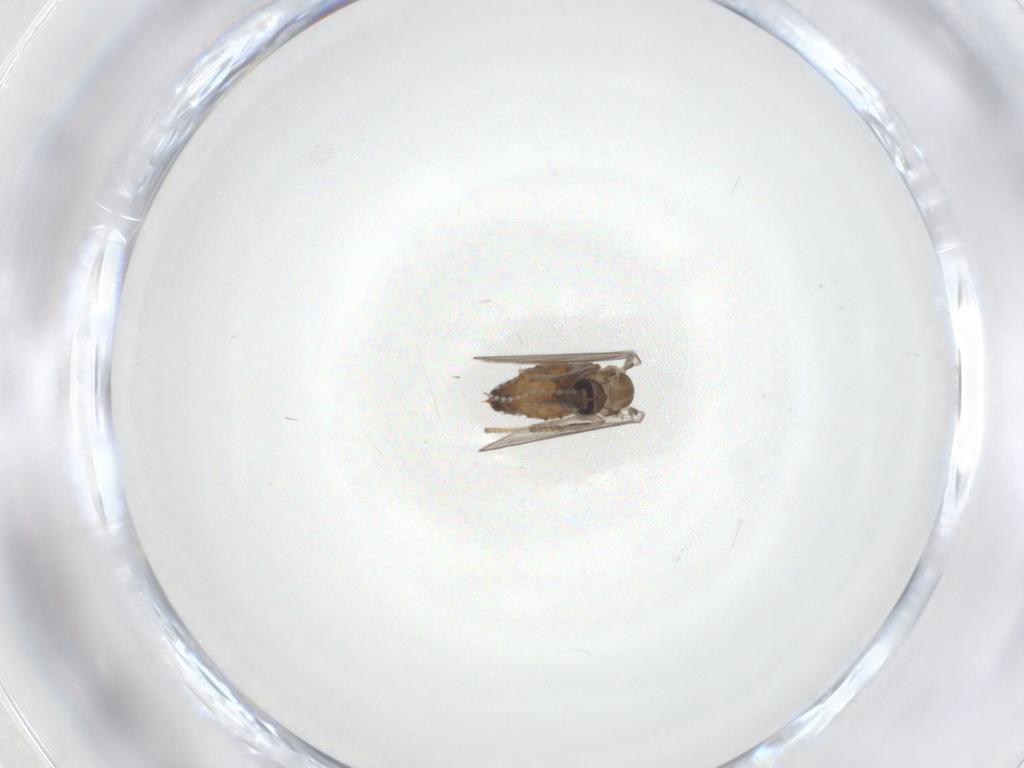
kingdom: Animalia
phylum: Arthropoda
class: Insecta
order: Diptera
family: Psychodidae
